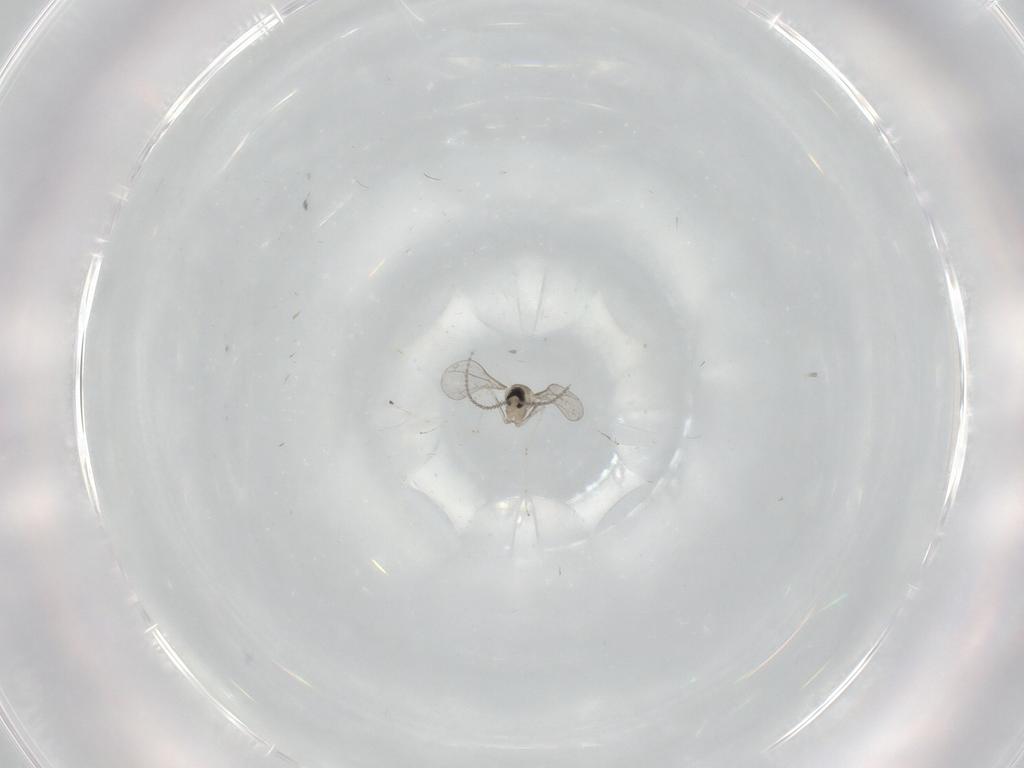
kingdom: Animalia
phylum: Arthropoda
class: Insecta
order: Diptera
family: Cecidomyiidae
